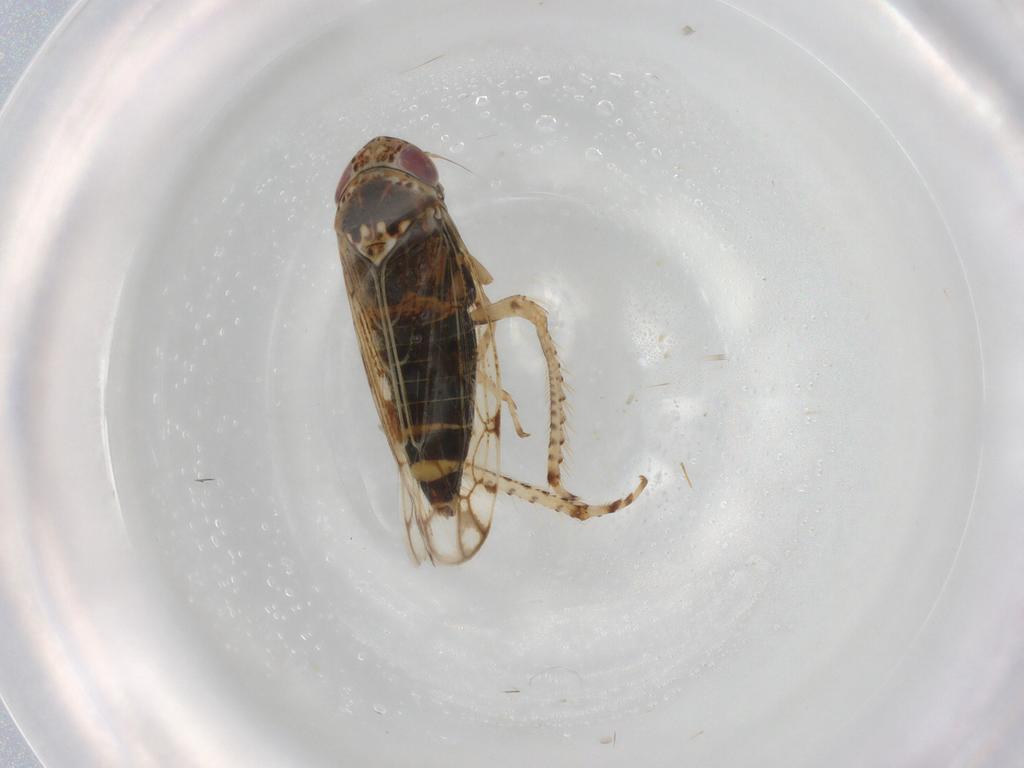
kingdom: Animalia
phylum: Arthropoda
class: Insecta
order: Hemiptera
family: Cicadellidae
